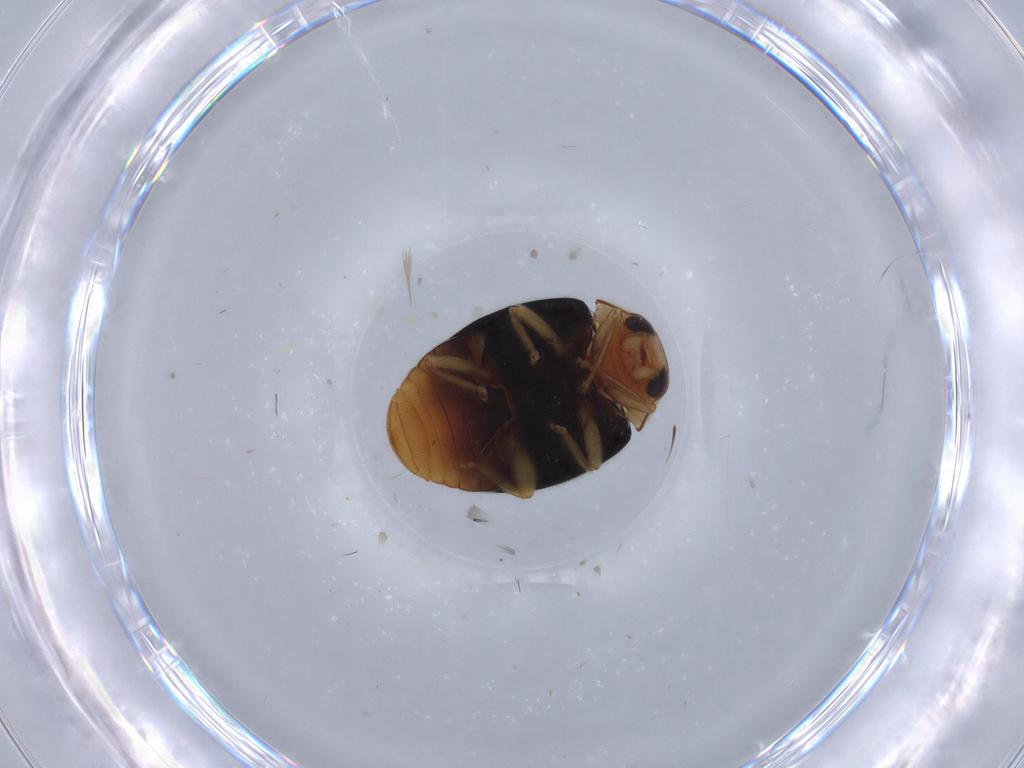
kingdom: Animalia
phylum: Arthropoda
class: Insecta
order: Coleoptera
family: Coccinellidae
